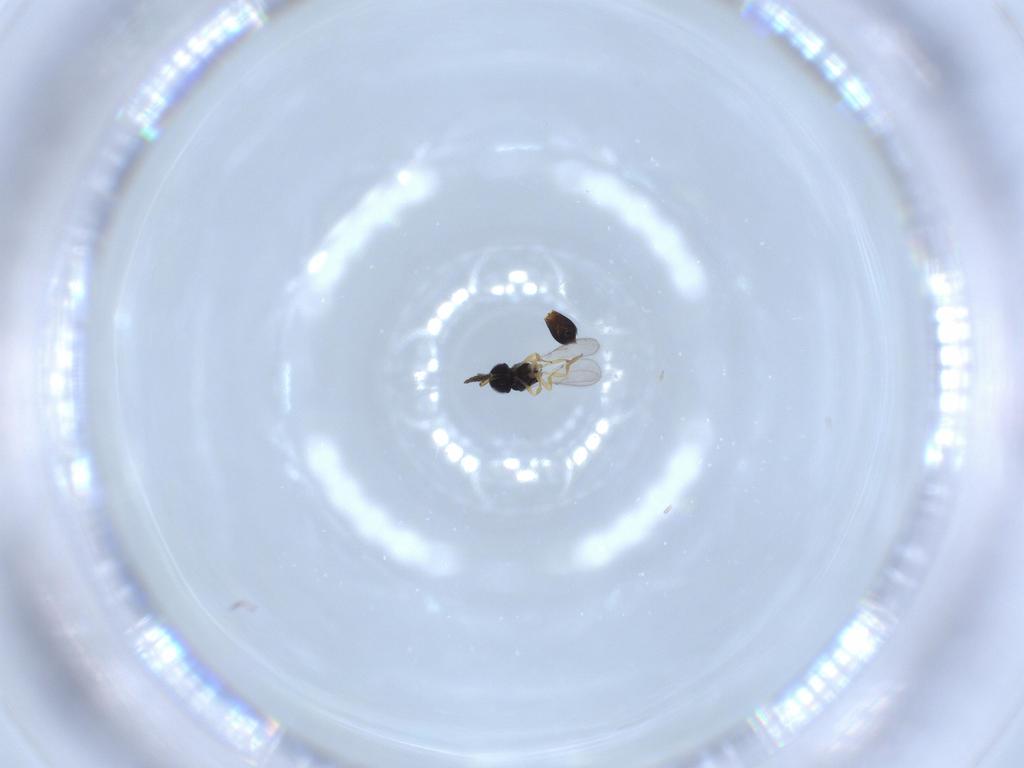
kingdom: Animalia
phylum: Arthropoda
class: Insecta
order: Hymenoptera
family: Scelionidae
